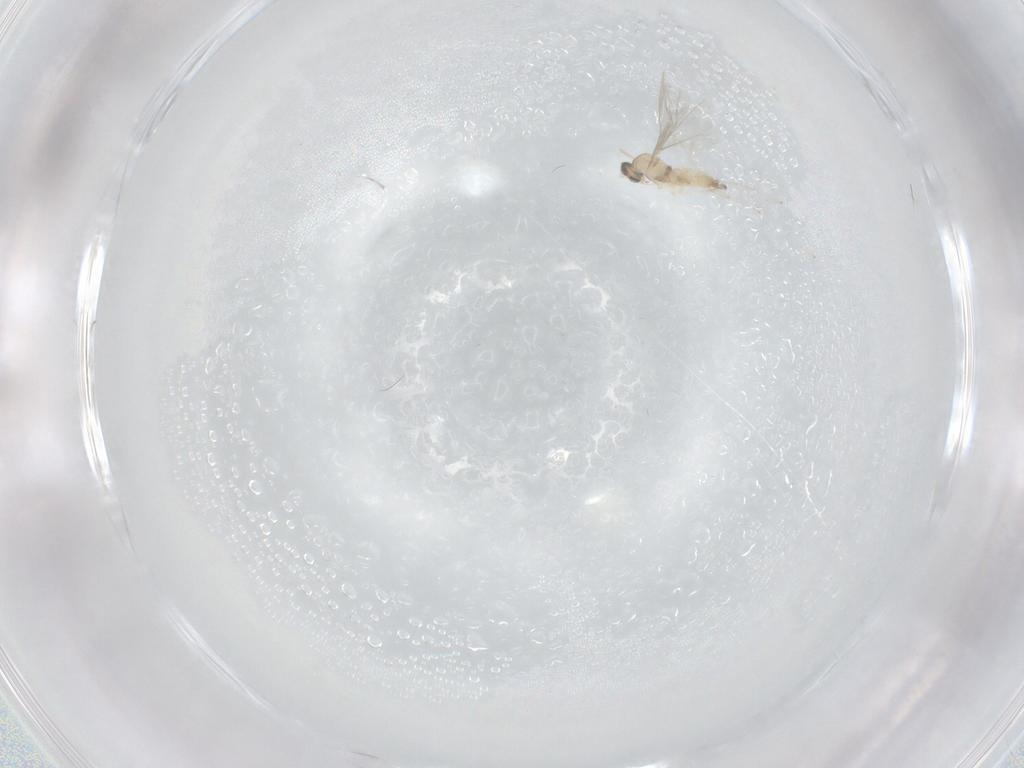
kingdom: Animalia
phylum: Arthropoda
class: Insecta
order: Diptera
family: Cecidomyiidae
